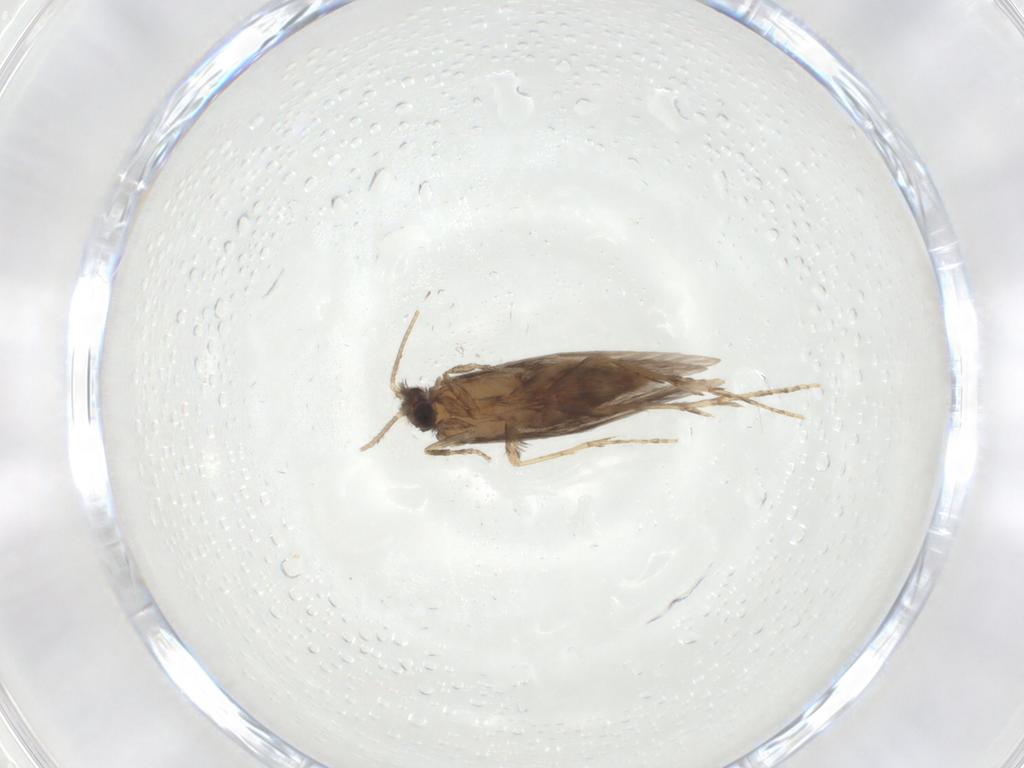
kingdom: Animalia
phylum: Arthropoda
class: Insecta
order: Trichoptera
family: Hydroptilidae
